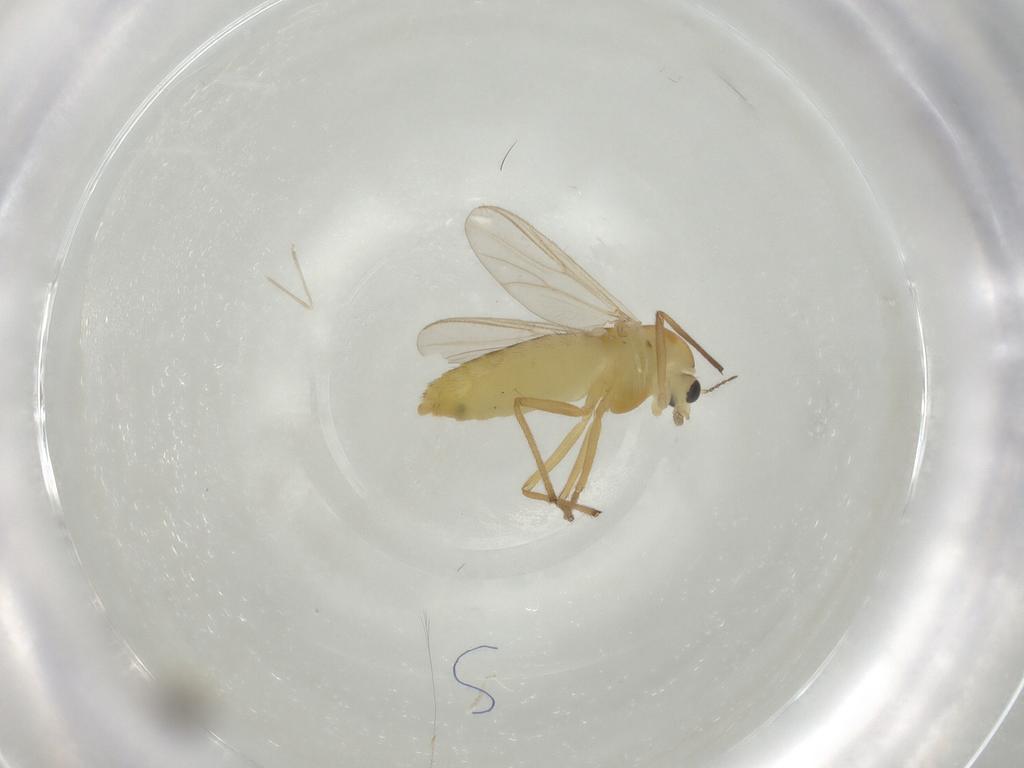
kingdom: Animalia
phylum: Arthropoda
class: Insecta
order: Diptera
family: Chironomidae
